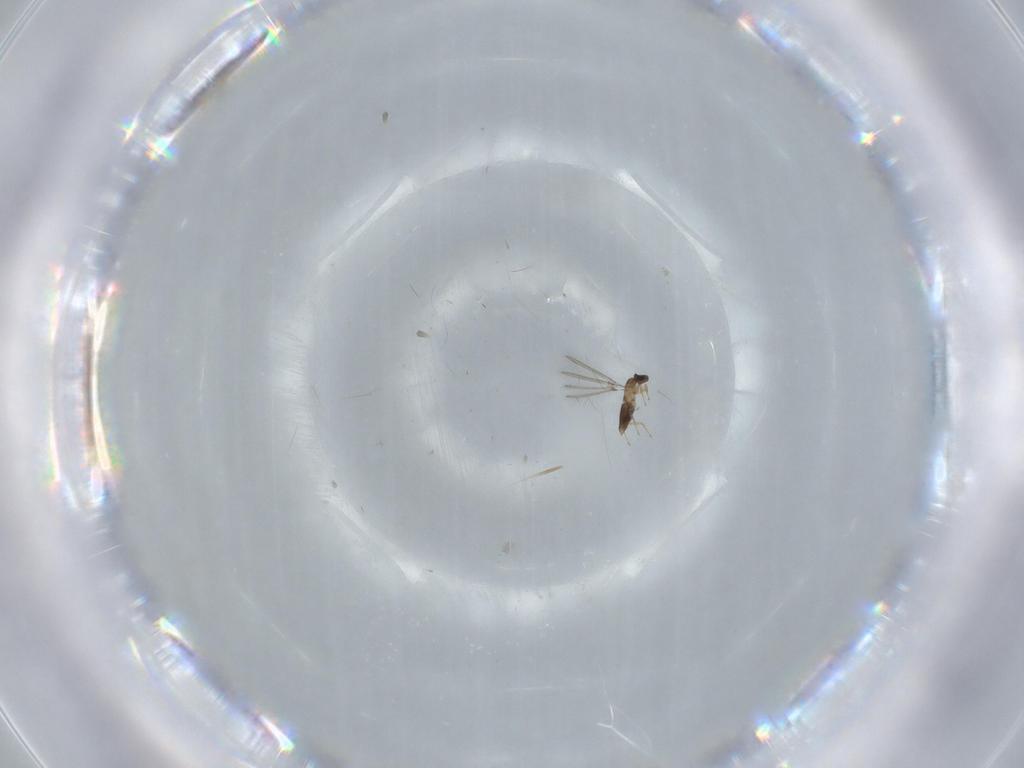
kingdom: Animalia
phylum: Arthropoda
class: Insecta
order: Hymenoptera
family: Mymaridae
